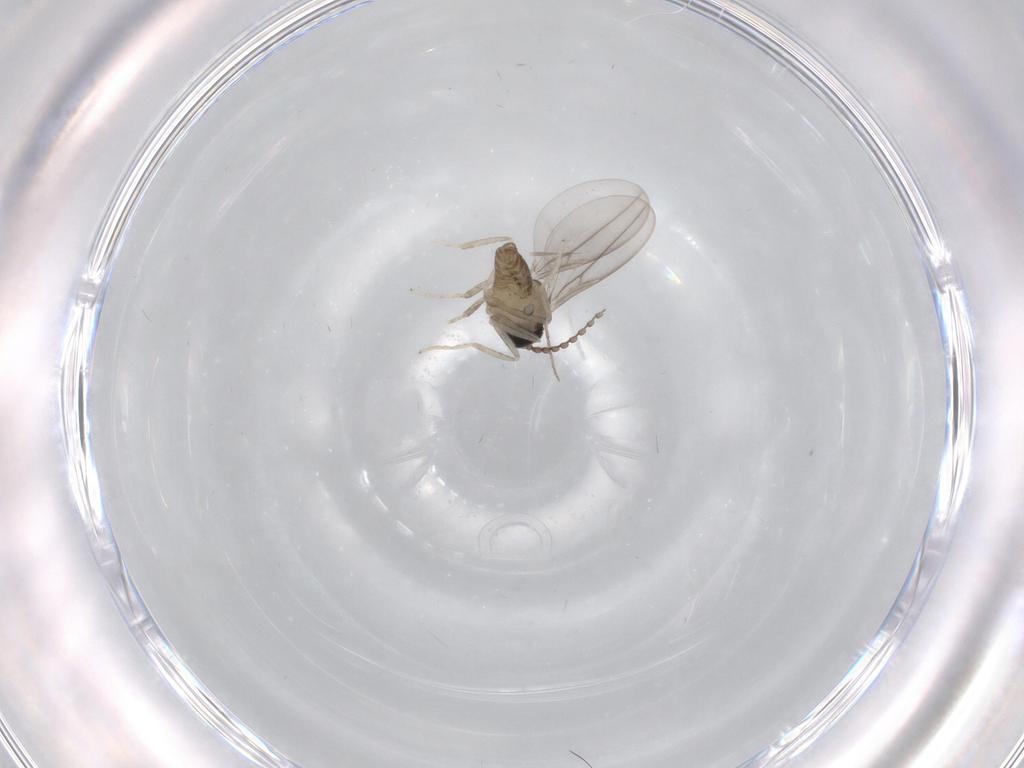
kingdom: Animalia
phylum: Arthropoda
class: Insecta
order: Diptera
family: Cecidomyiidae
